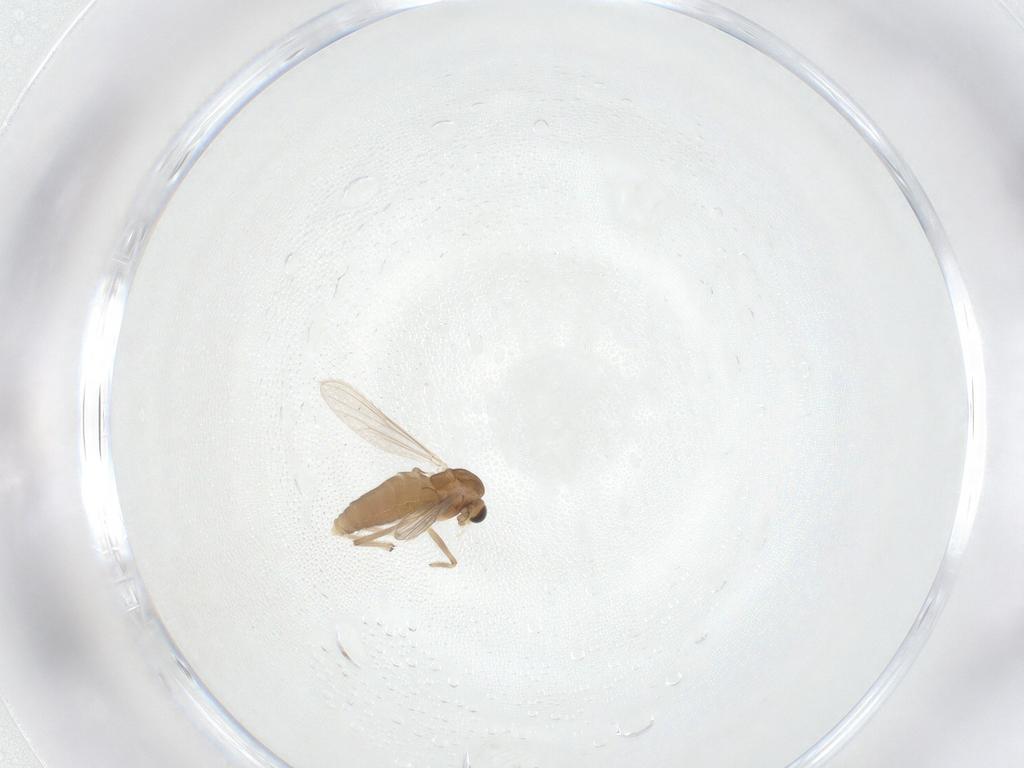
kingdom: Animalia
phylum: Arthropoda
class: Insecta
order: Diptera
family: Chironomidae
